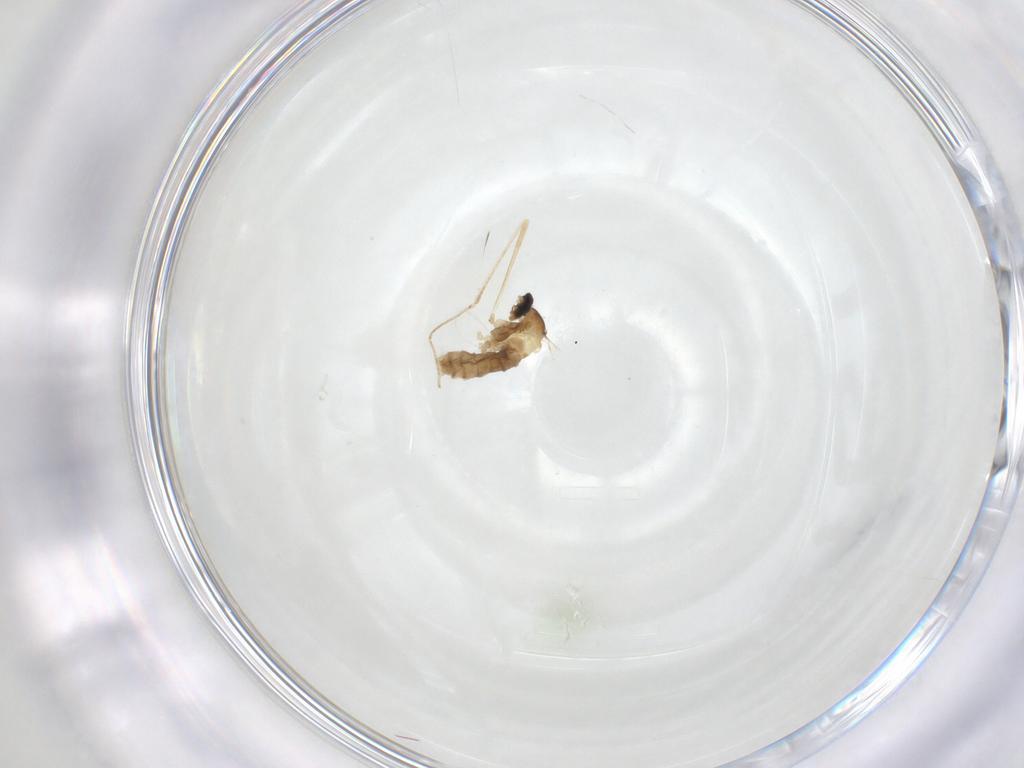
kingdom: Animalia
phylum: Arthropoda
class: Insecta
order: Diptera
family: Cecidomyiidae
